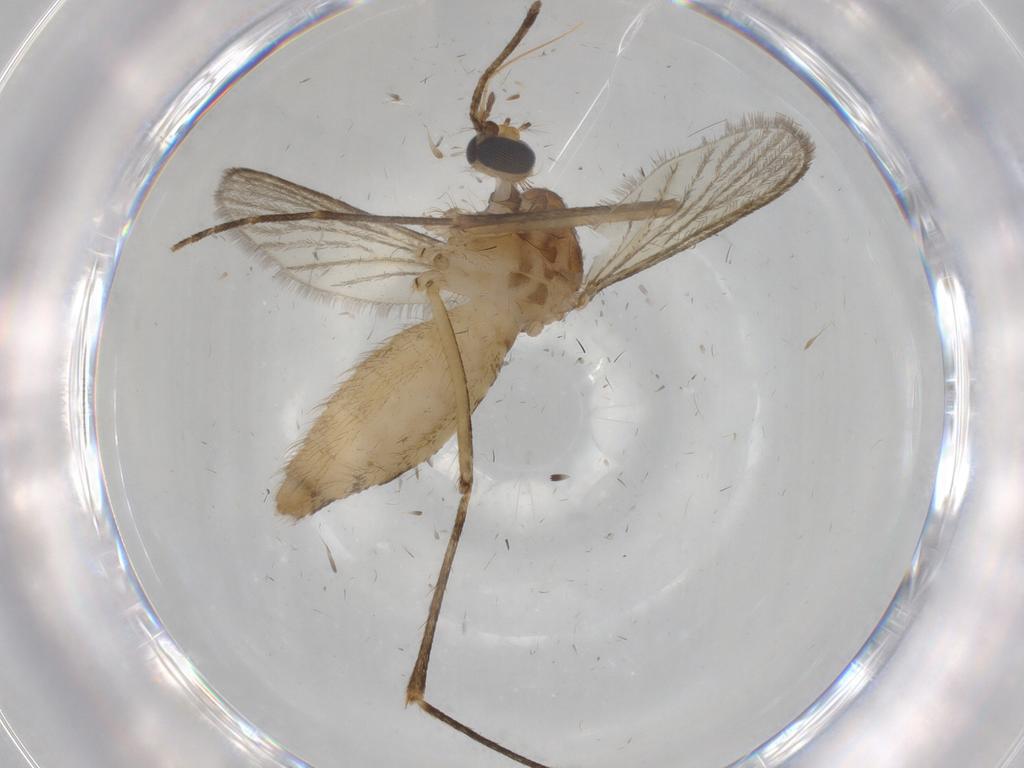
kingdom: Animalia
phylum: Arthropoda
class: Insecta
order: Diptera
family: Culicidae
